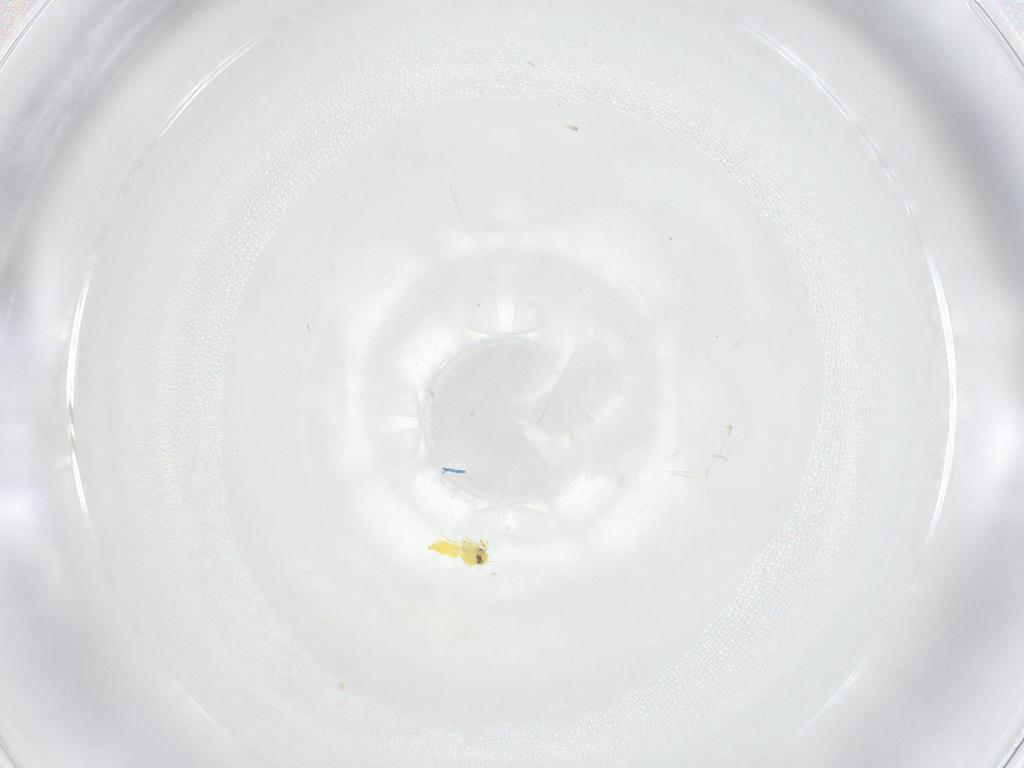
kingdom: Animalia
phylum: Arthropoda
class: Insecta
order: Hemiptera
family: Aleyrodidae
